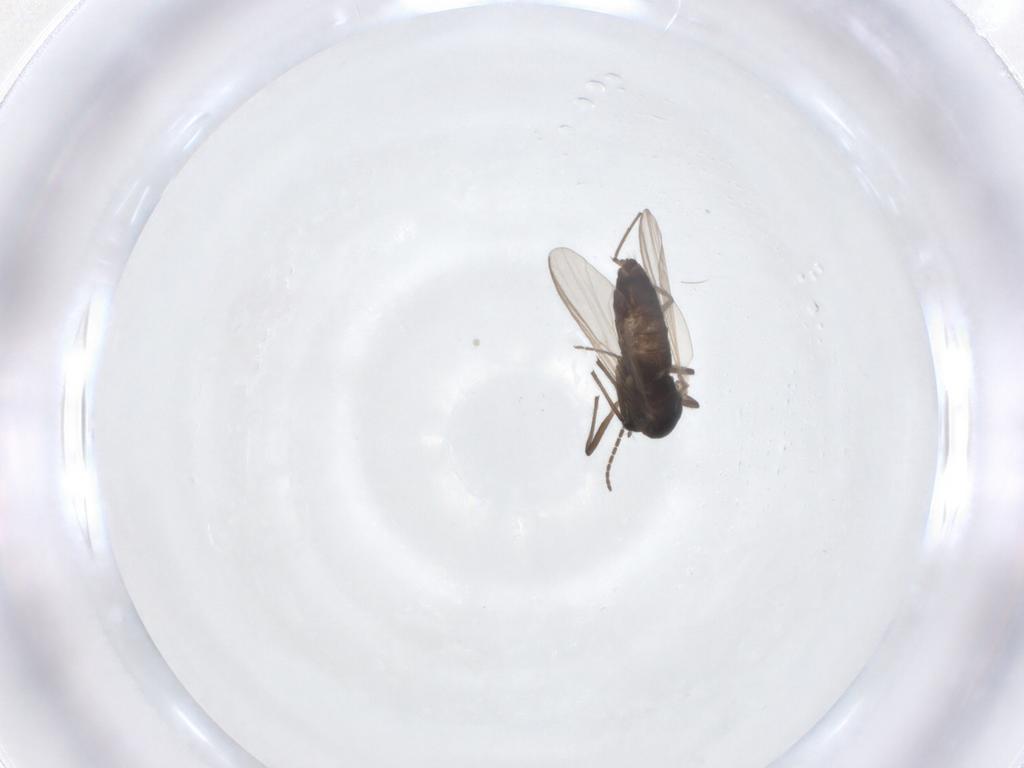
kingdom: Animalia
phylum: Arthropoda
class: Insecta
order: Diptera
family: Chironomidae
